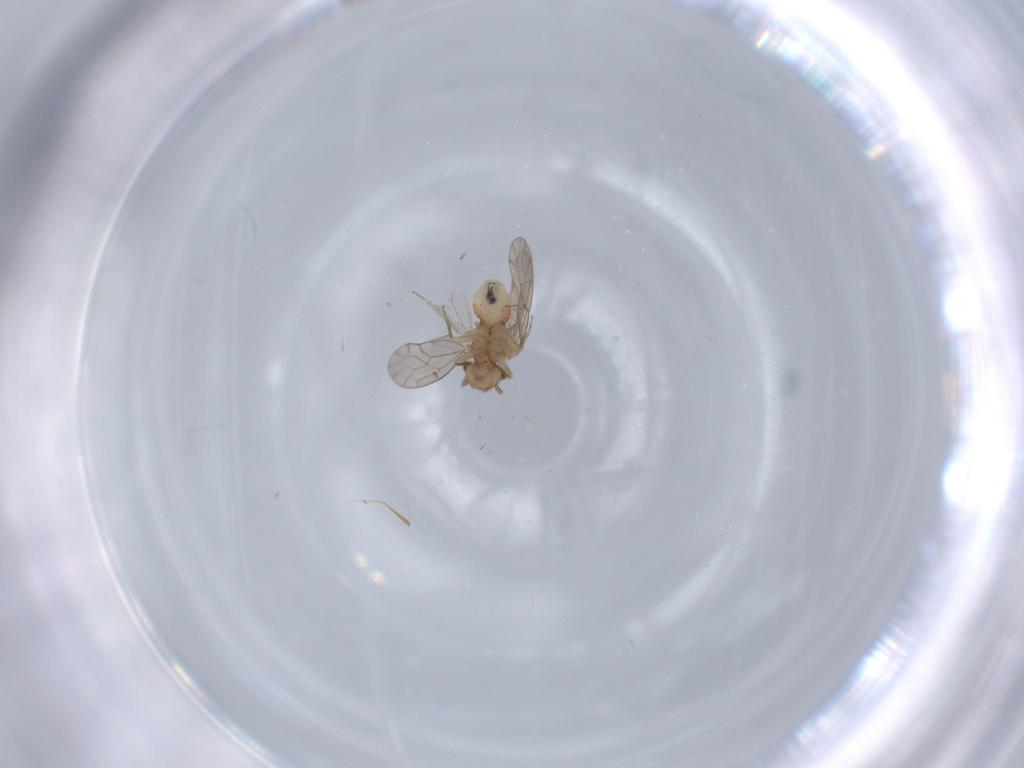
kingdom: Animalia
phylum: Arthropoda
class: Insecta
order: Psocodea
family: Ectopsocidae
